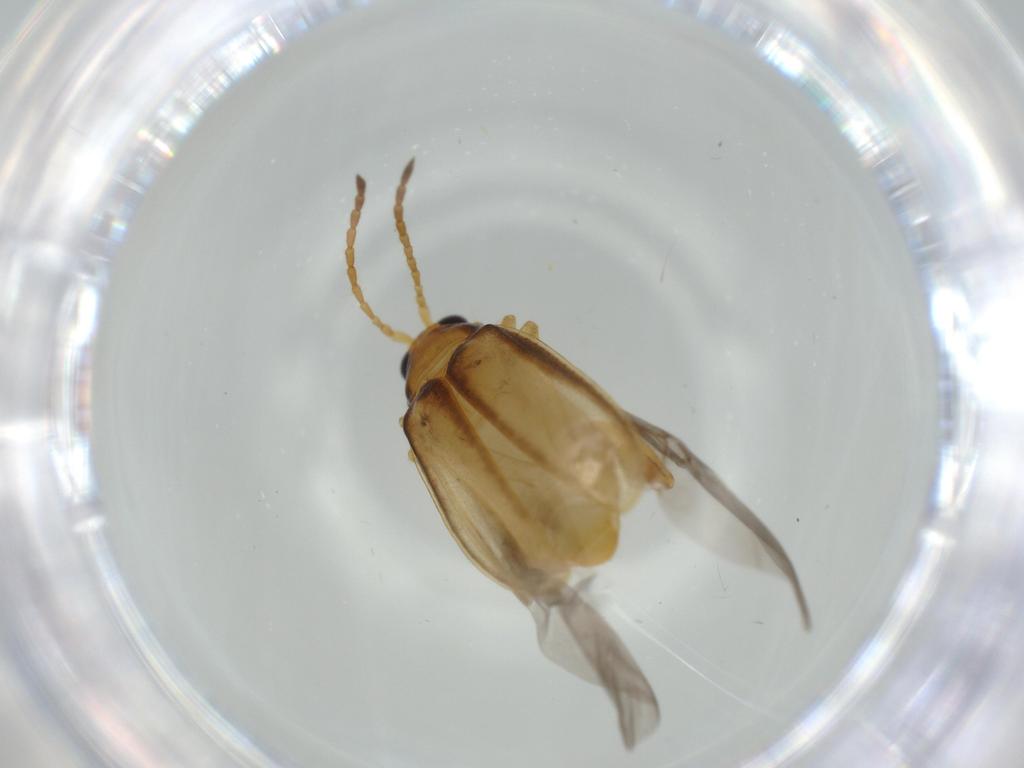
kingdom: Animalia
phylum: Arthropoda
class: Insecta
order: Coleoptera
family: Chrysomelidae
